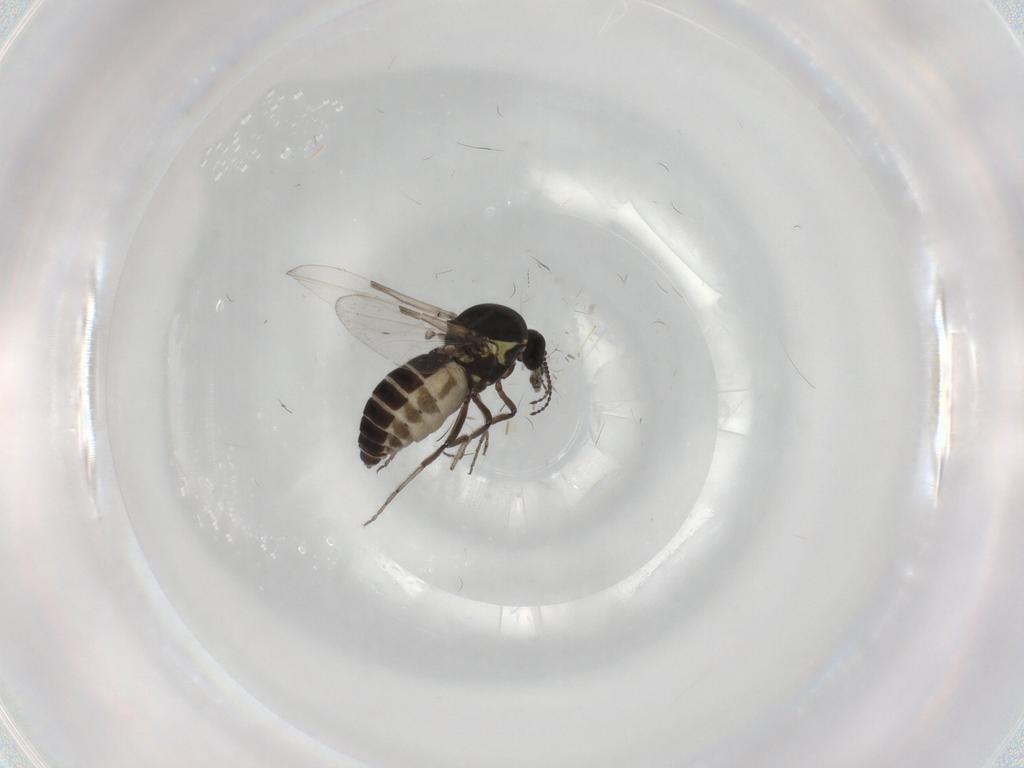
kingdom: Animalia
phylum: Arthropoda
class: Insecta
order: Diptera
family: Ceratopogonidae
